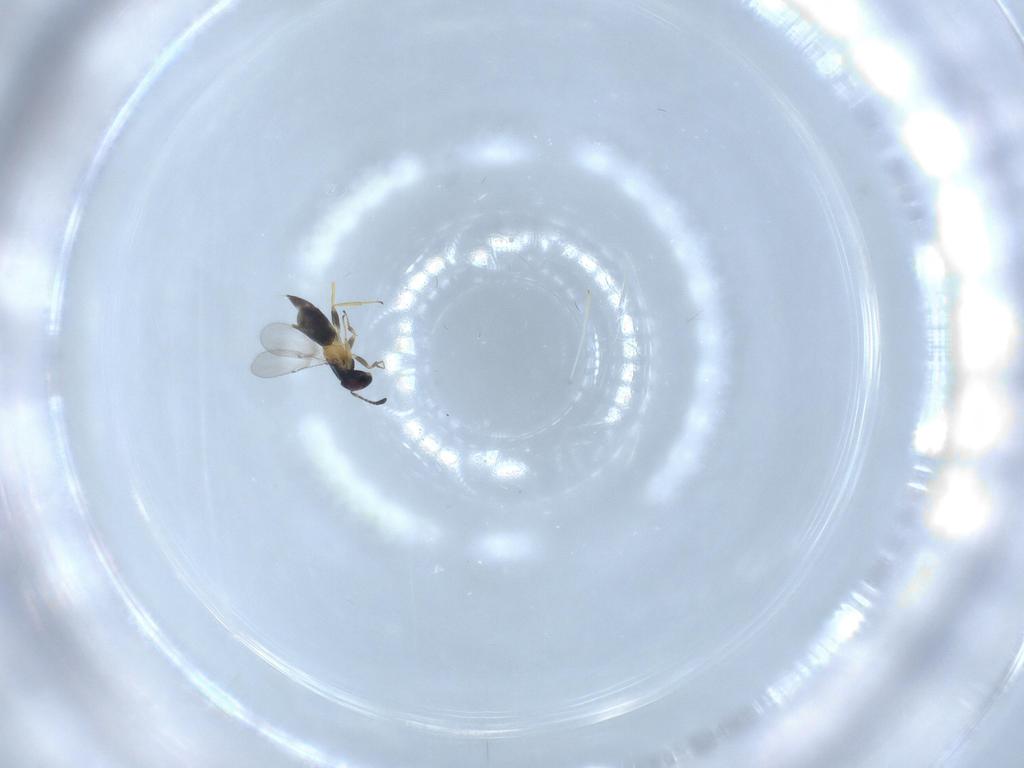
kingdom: Animalia
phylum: Arthropoda
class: Insecta
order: Hymenoptera
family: Encyrtidae
